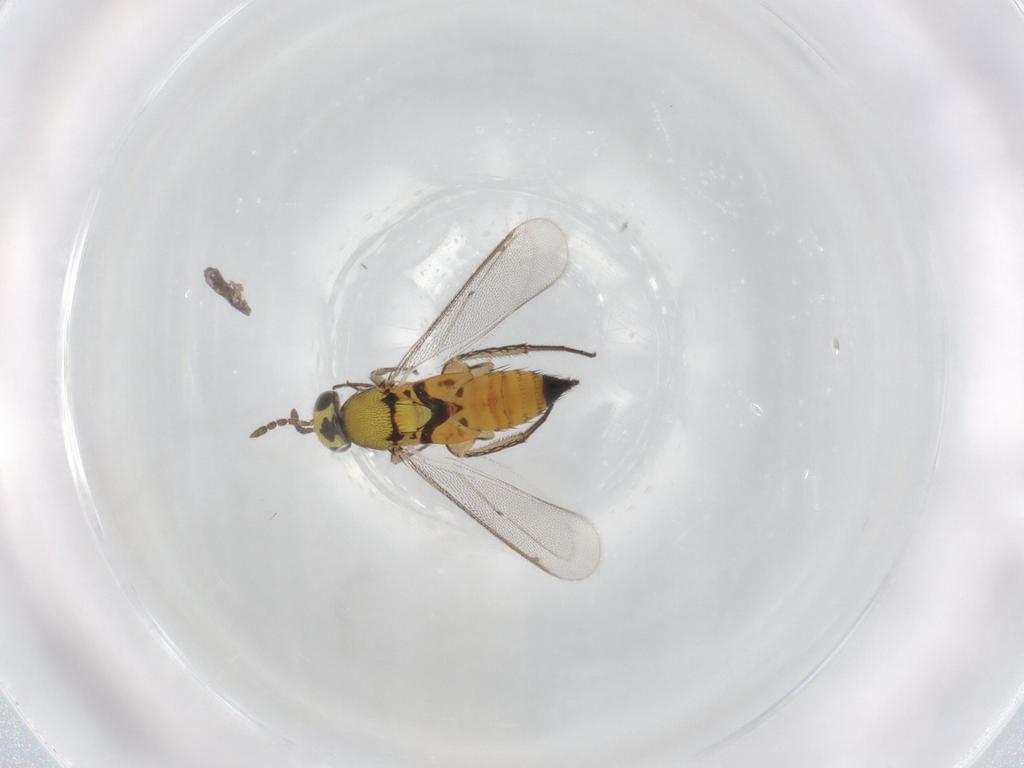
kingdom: Animalia
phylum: Arthropoda
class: Insecta
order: Hymenoptera
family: Eulophidae
